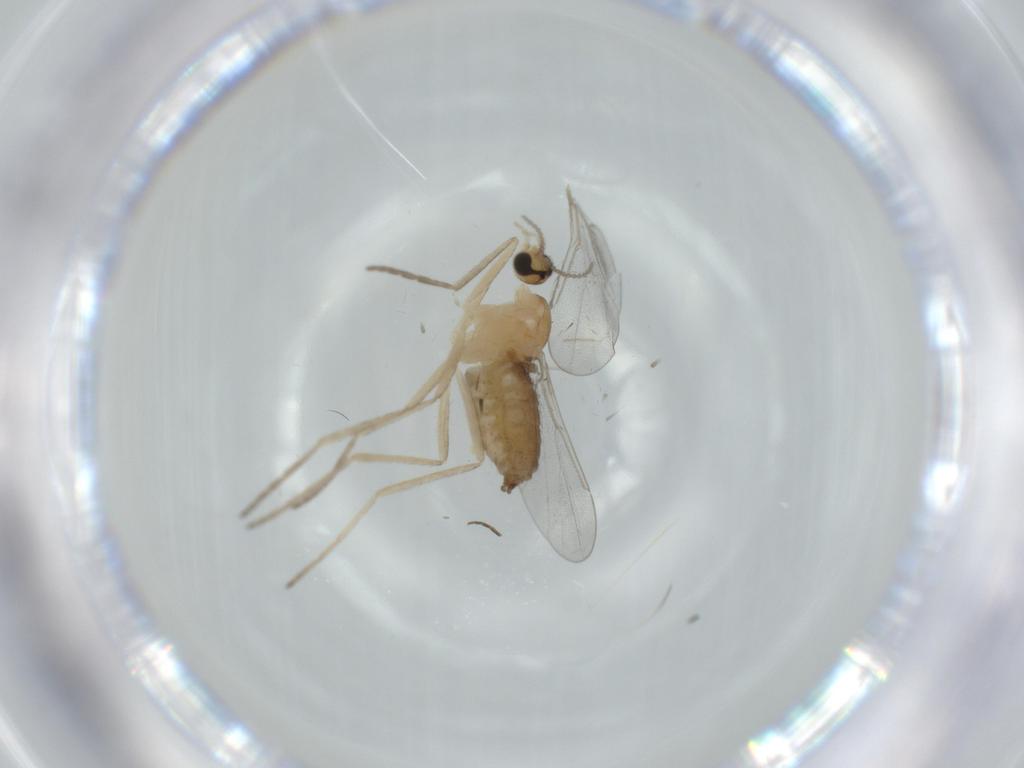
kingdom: Animalia
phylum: Arthropoda
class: Insecta
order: Diptera
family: Cecidomyiidae
